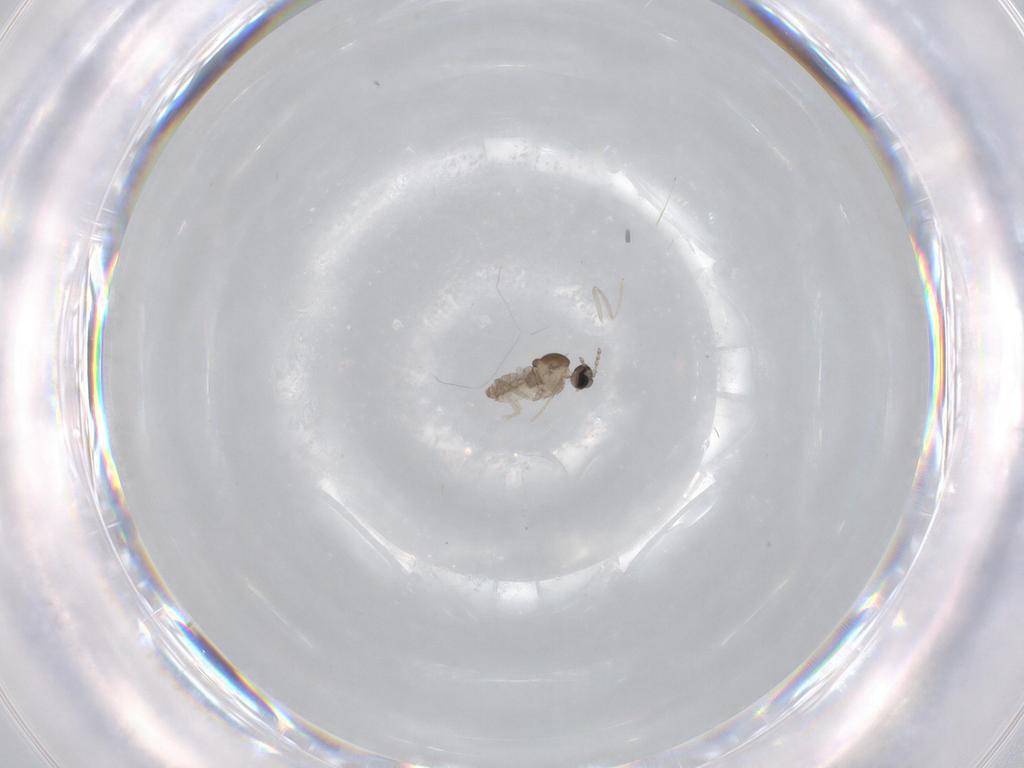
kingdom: Animalia
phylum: Arthropoda
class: Insecta
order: Diptera
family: Cecidomyiidae
